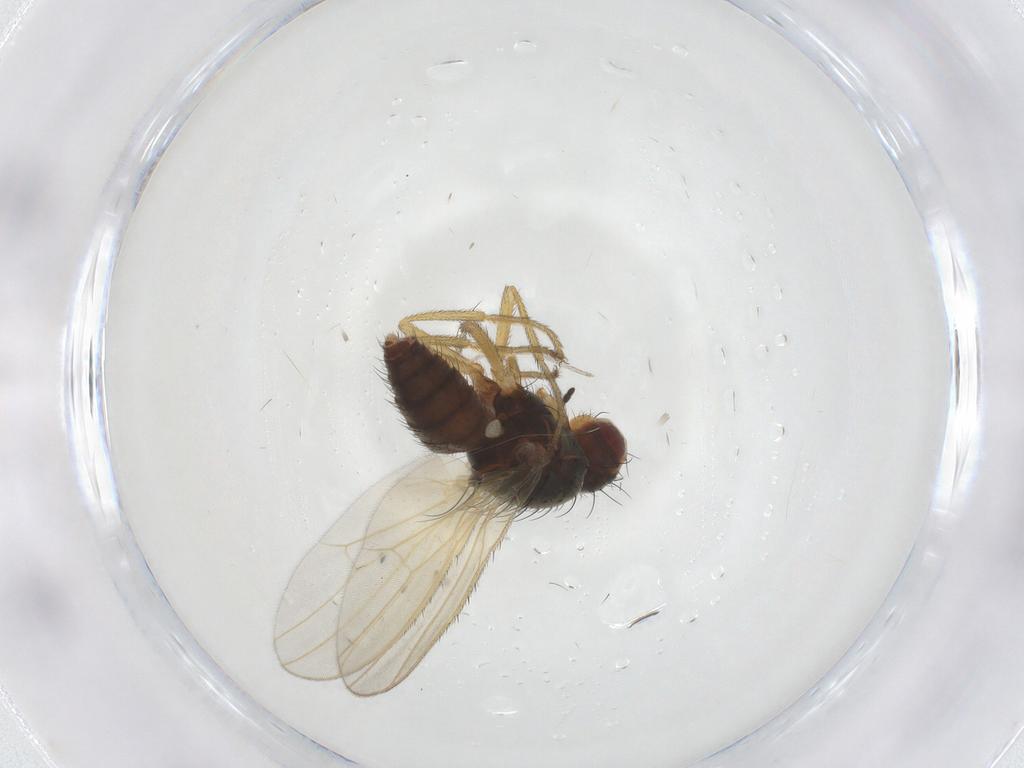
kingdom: Animalia
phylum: Arthropoda
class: Insecta
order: Diptera
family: Heleomyzidae
